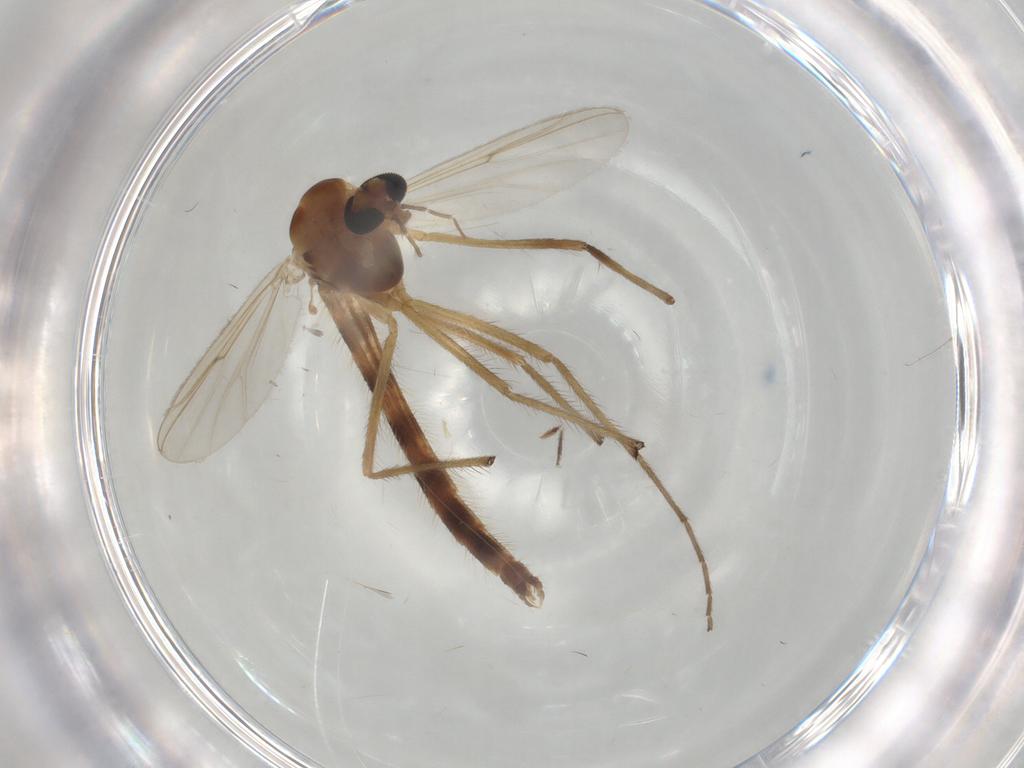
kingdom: Animalia
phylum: Arthropoda
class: Insecta
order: Diptera
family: Chironomidae
